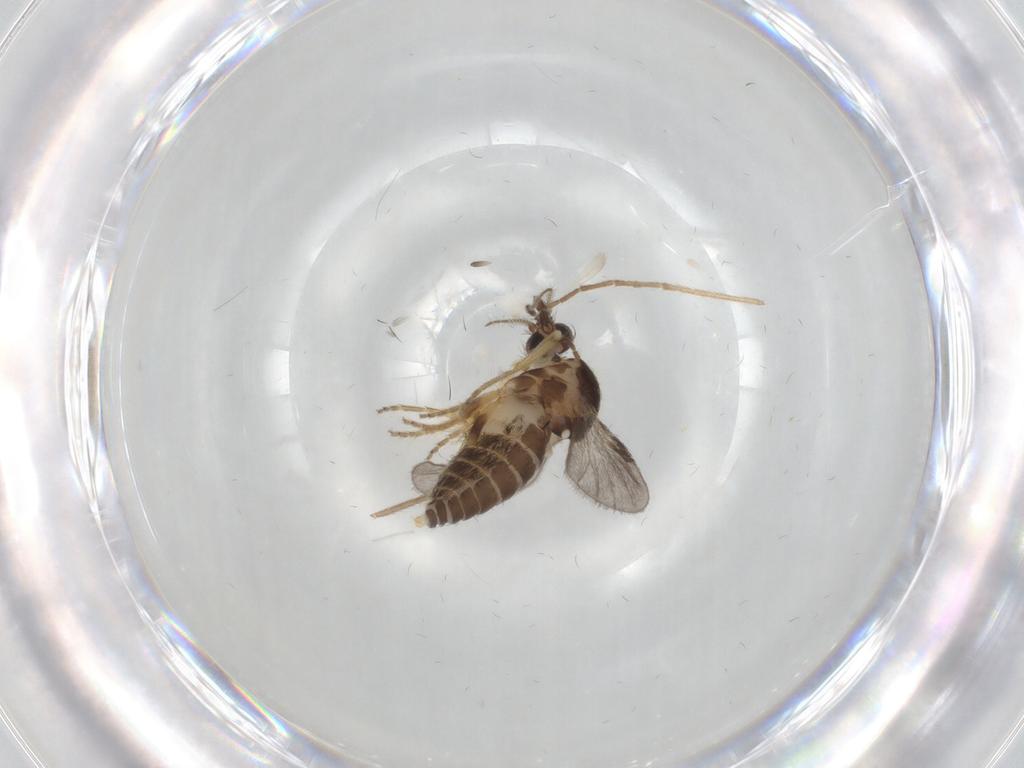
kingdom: Animalia
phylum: Arthropoda
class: Insecta
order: Diptera
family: Ceratopogonidae
